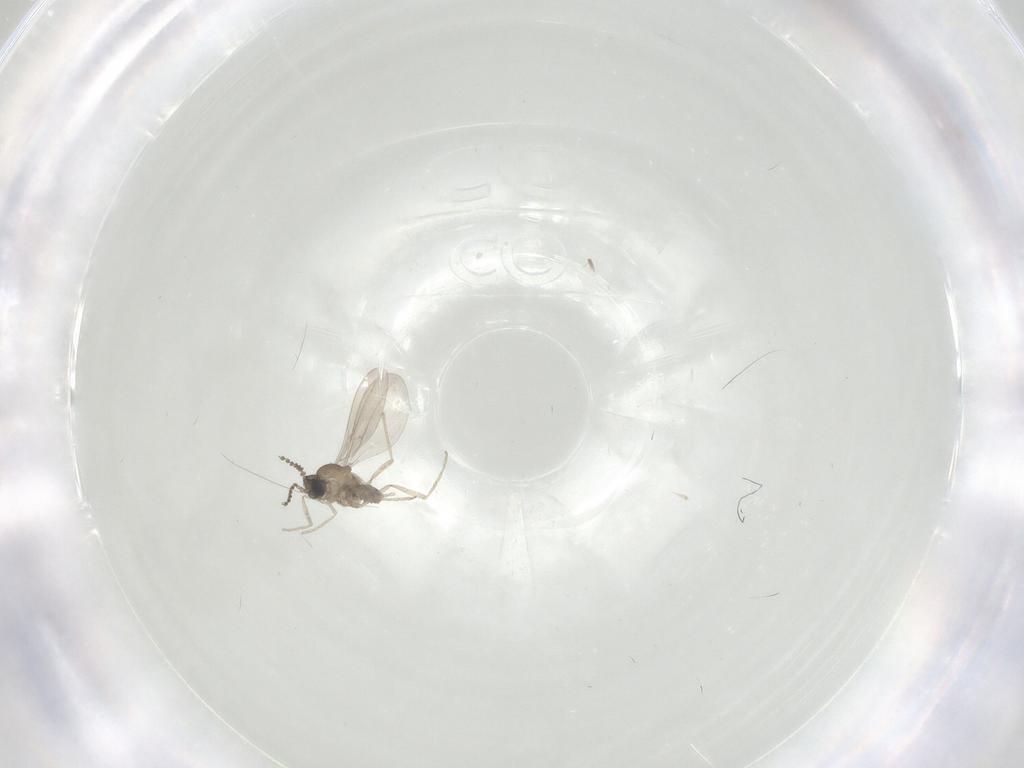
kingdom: Animalia
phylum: Arthropoda
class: Insecta
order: Diptera
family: Cecidomyiidae
